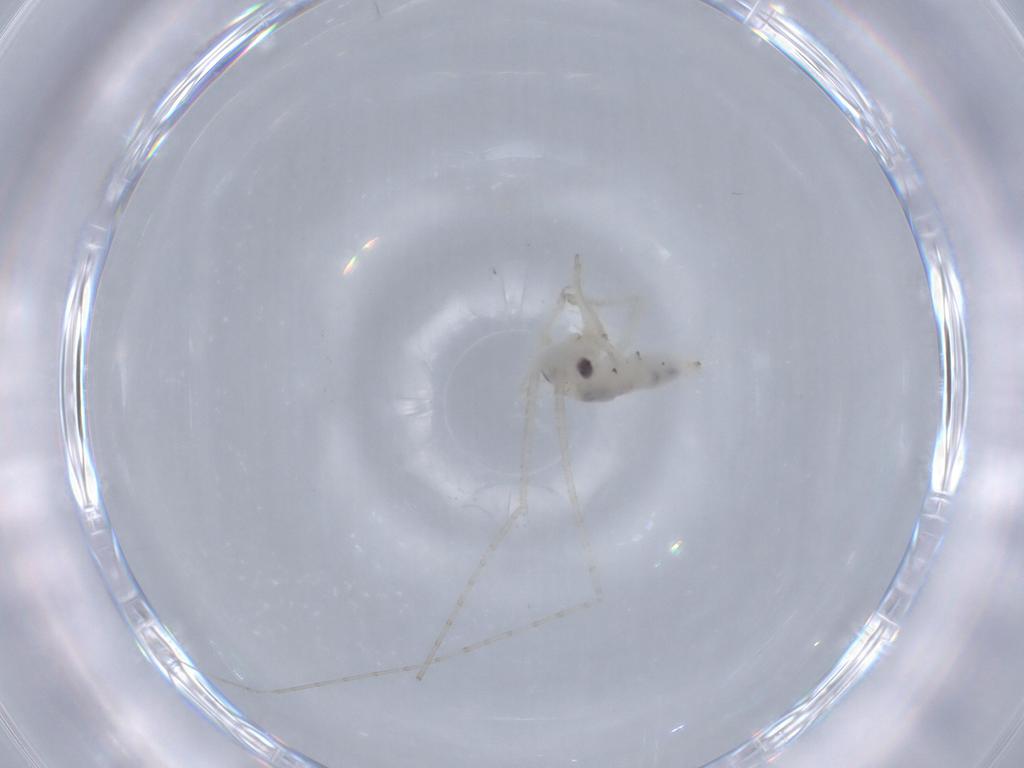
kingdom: Animalia
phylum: Arthropoda
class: Insecta
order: Orthoptera
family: Trigonidiidae
